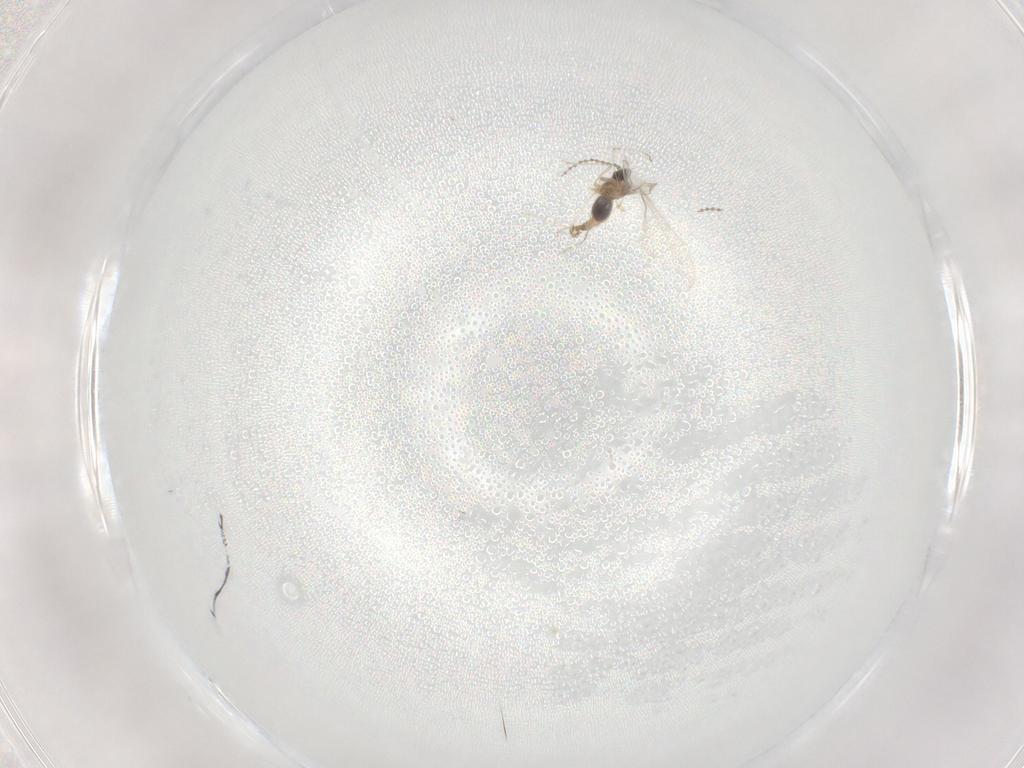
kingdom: Animalia
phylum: Arthropoda
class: Insecta
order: Diptera
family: Cecidomyiidae
